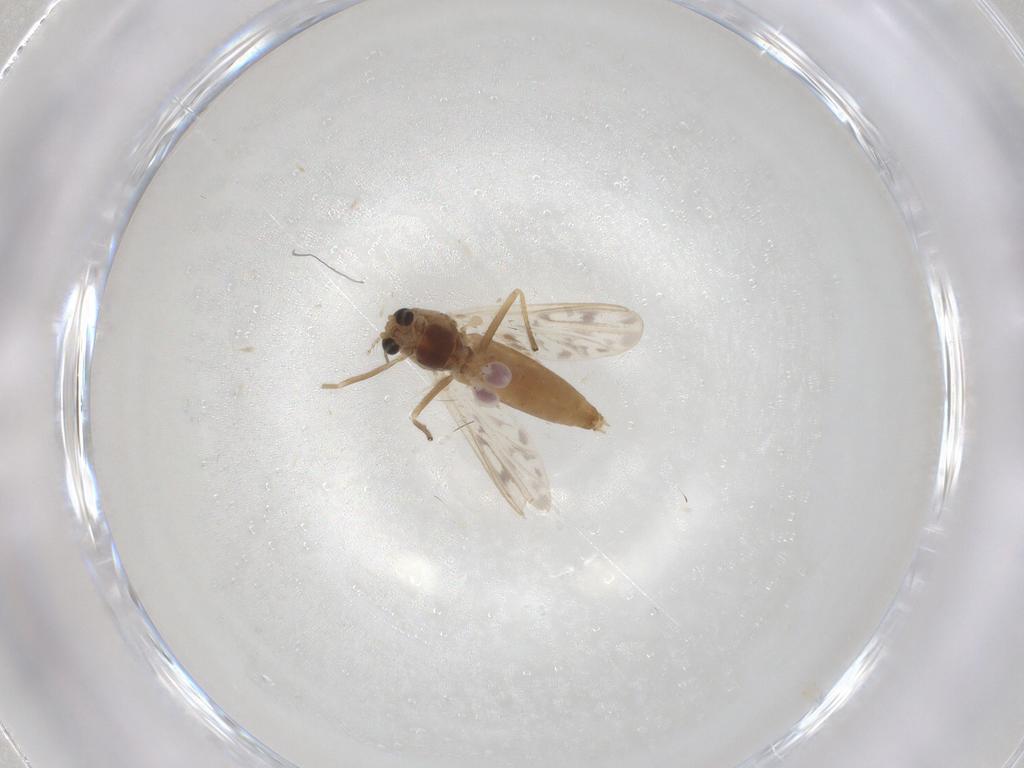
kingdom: Animalia
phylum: Arthropoda
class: Insecta
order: Diptera
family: Chironomidae
